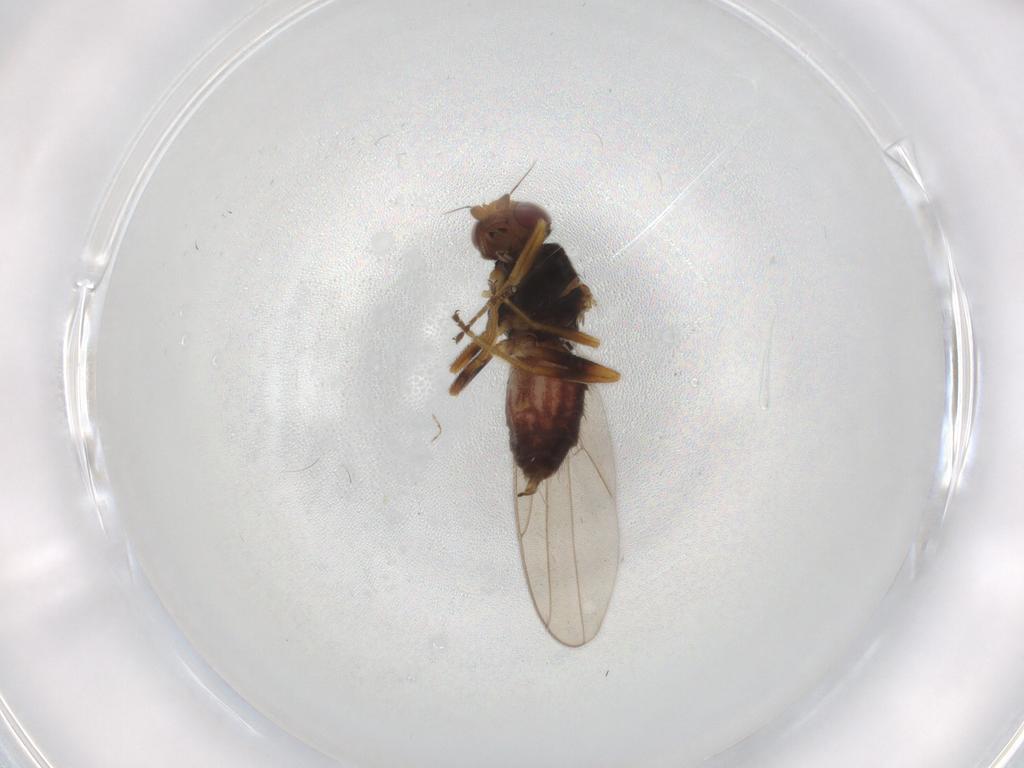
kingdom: Animalia
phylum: Arthropoda
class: Insecta
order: Diptera
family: Chloropidae
